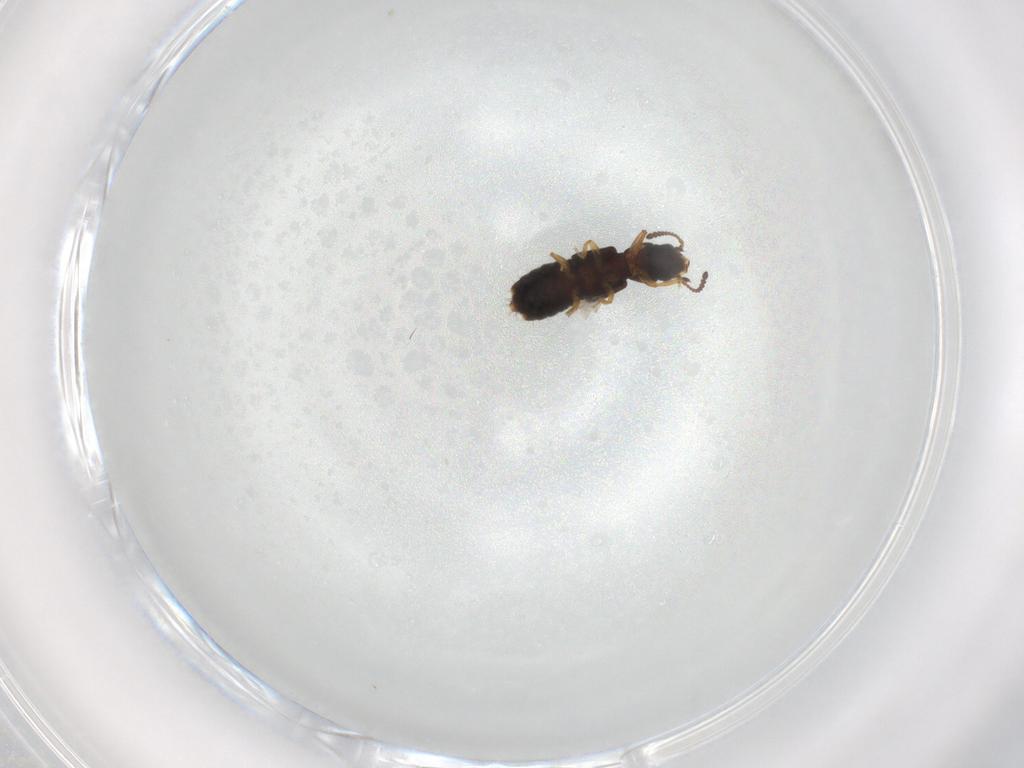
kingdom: Animalia
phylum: Arthropoda
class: Insecta
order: Coleoptera
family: Staphylinidae
